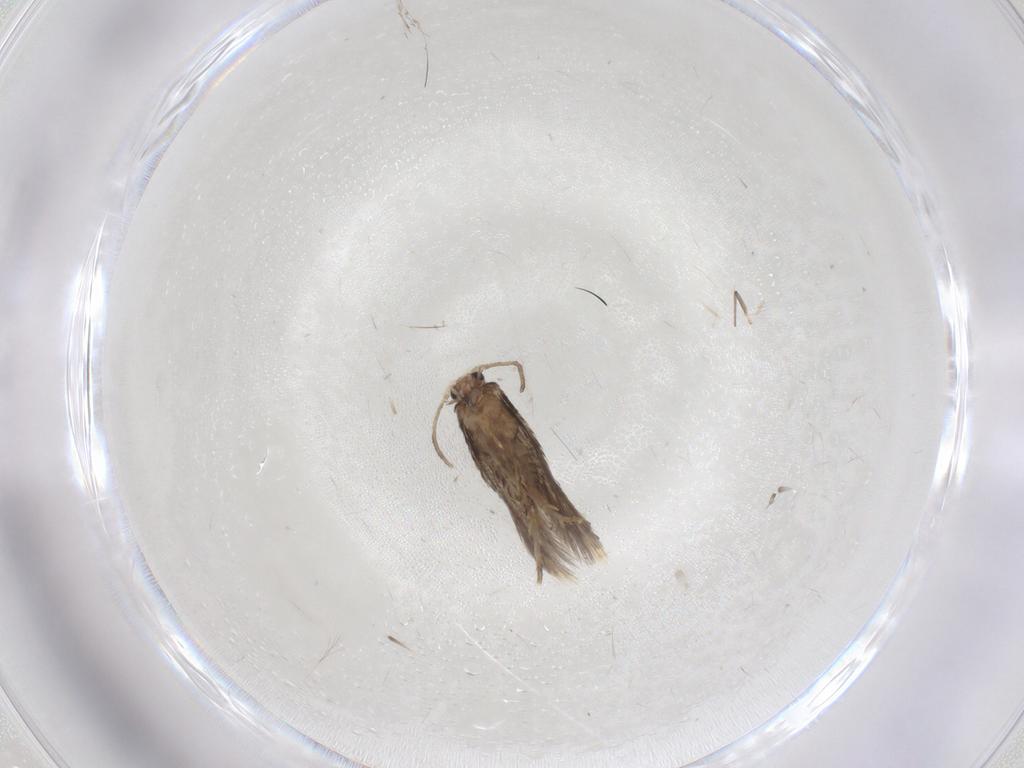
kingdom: Animalia
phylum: Arthropoda
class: Insecta
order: Lepidoptera
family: Nepticulidae
